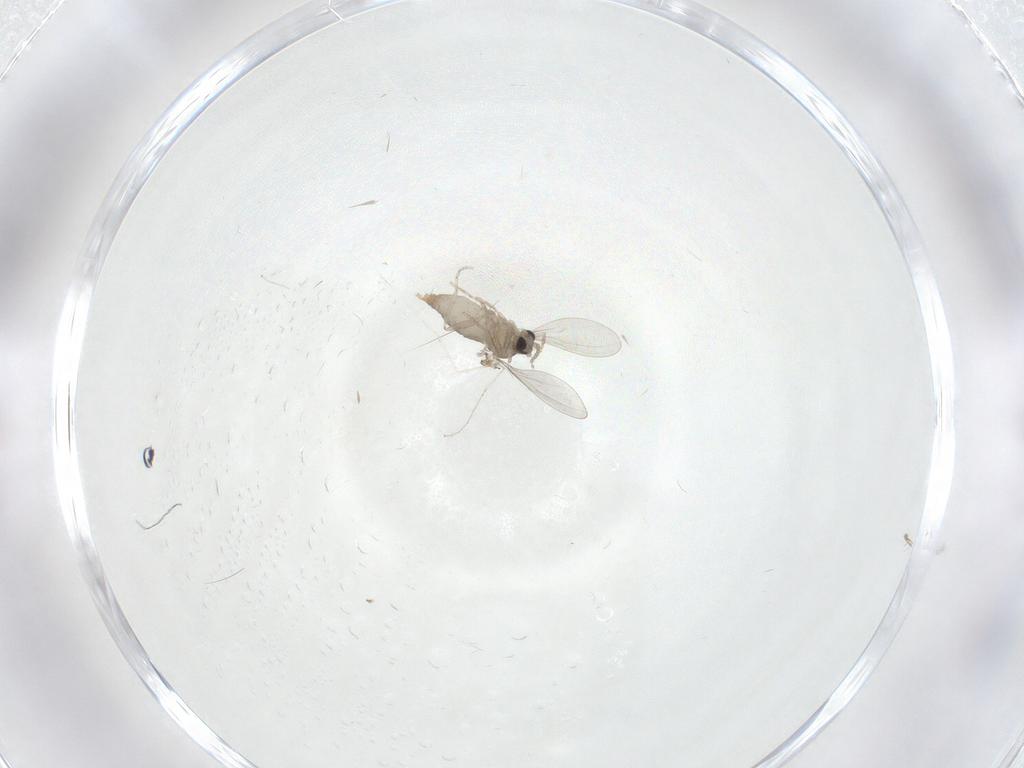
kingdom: Animalia
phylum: Arthropoda
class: Insecta
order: Diptera
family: Cecidomyiidae
